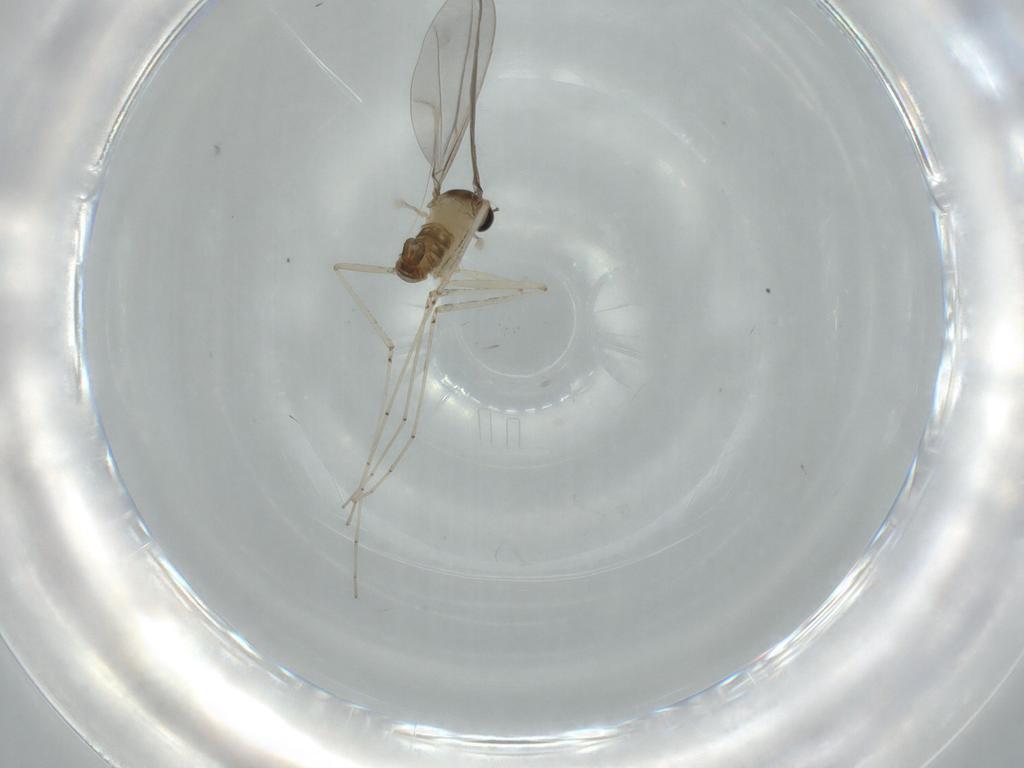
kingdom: Animalia
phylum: Arthropoda
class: Insecta
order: Diptera
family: Cecidomyiidae
